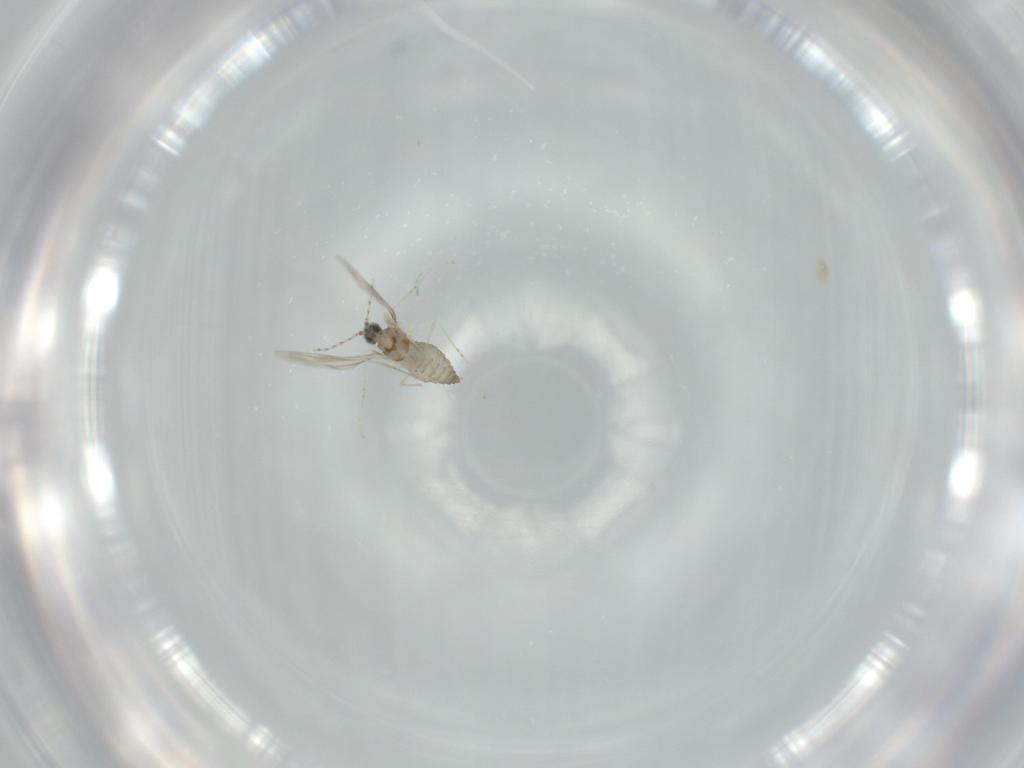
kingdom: Animalia
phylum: Arthropoda
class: Insecta
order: Diptera
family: Cecidomyiidae
